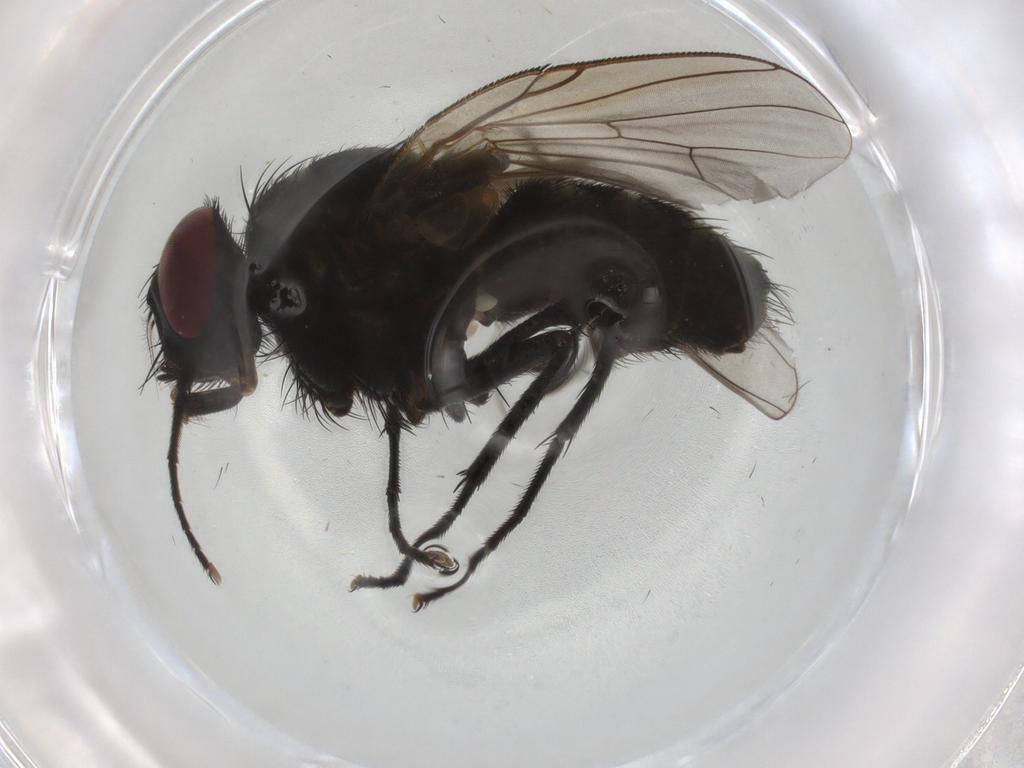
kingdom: Animalia
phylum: Arthropoda
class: Insecta
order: Diptera
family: Muscidae
